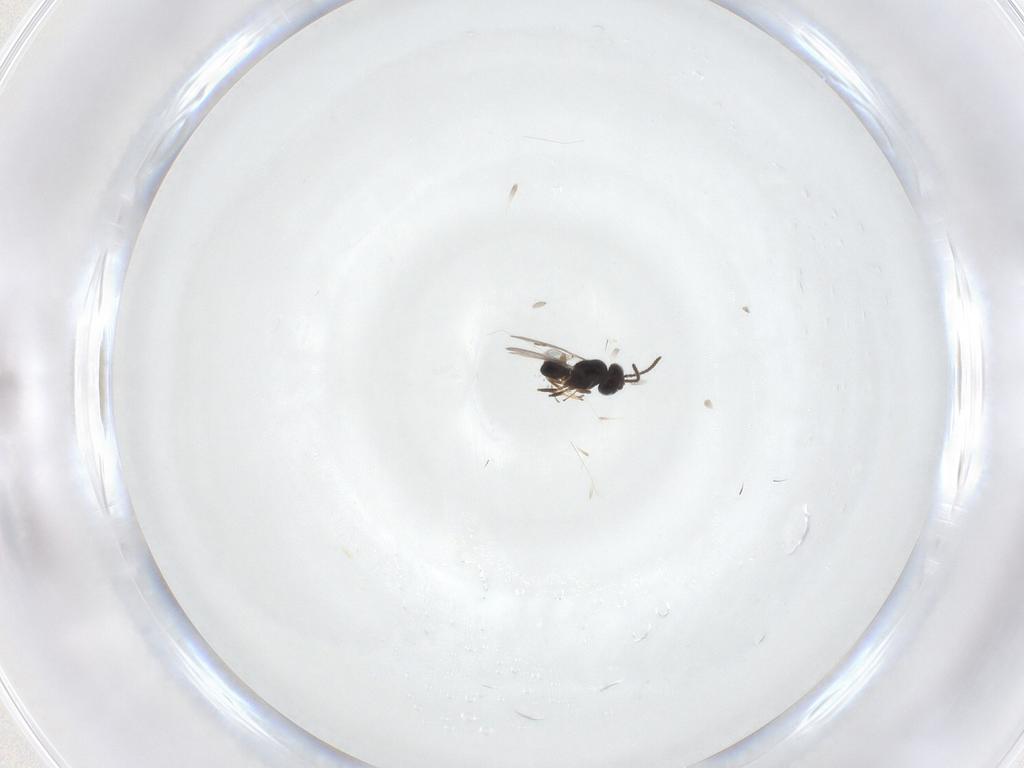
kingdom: Animalia
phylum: Arthropoda
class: Insecta
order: Hymenoptera
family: Scelionidae
